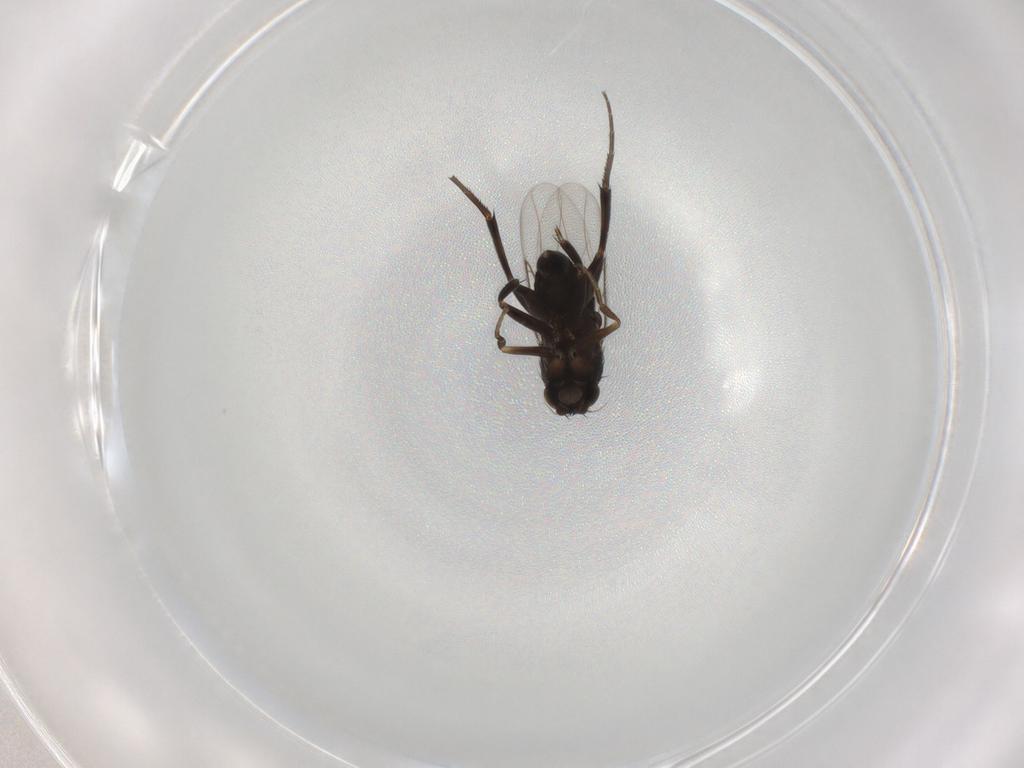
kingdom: Animalia
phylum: Arthropoda
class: Insecta
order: Diptera
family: Phoridae
